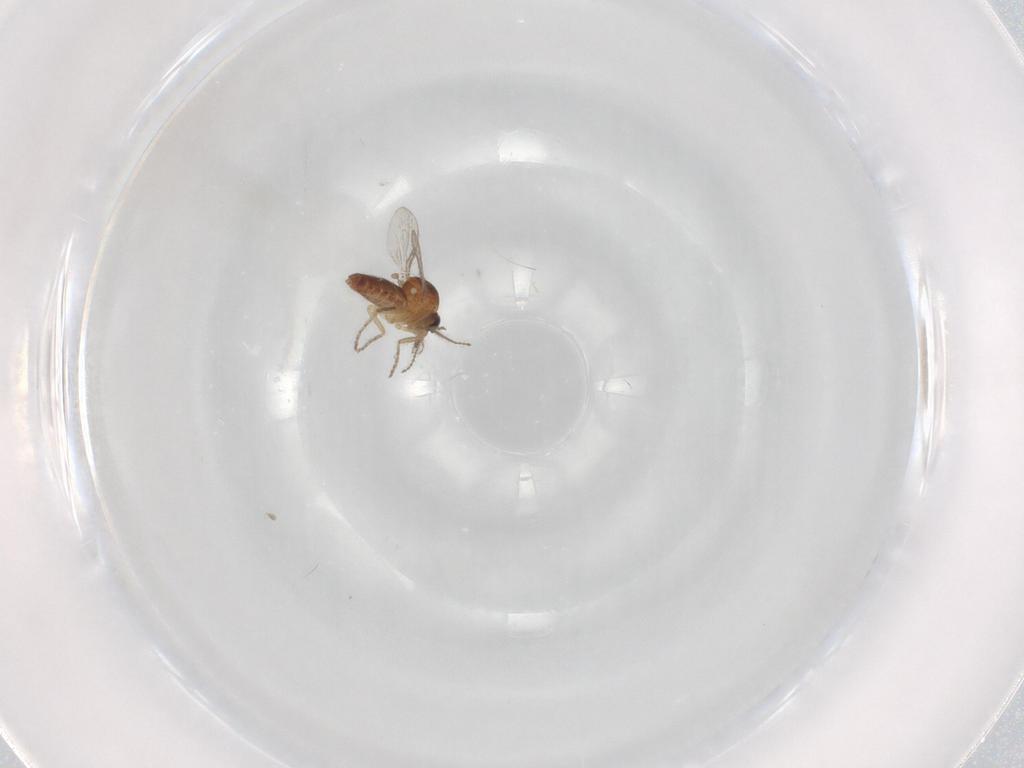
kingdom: Animalia
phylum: Arthropoda
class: Insecta
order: Diptera
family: Ceratopogonidae
